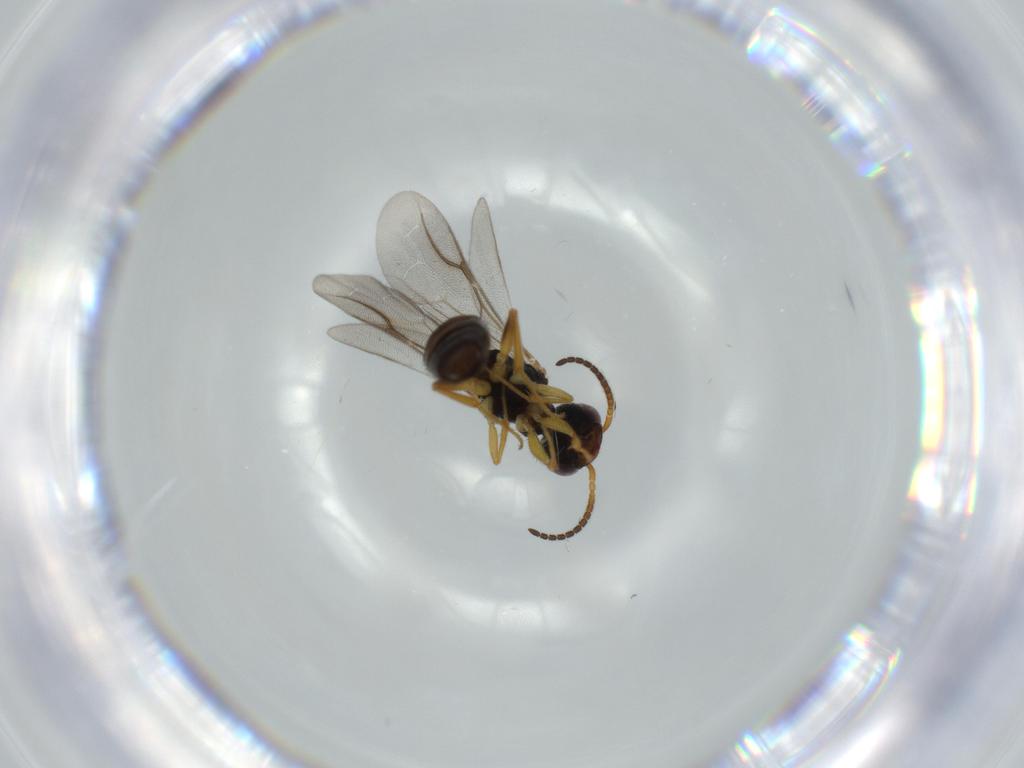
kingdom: Animalia
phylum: Arthropoda
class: Insecta
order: Hymenoptera
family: Bethylidae
